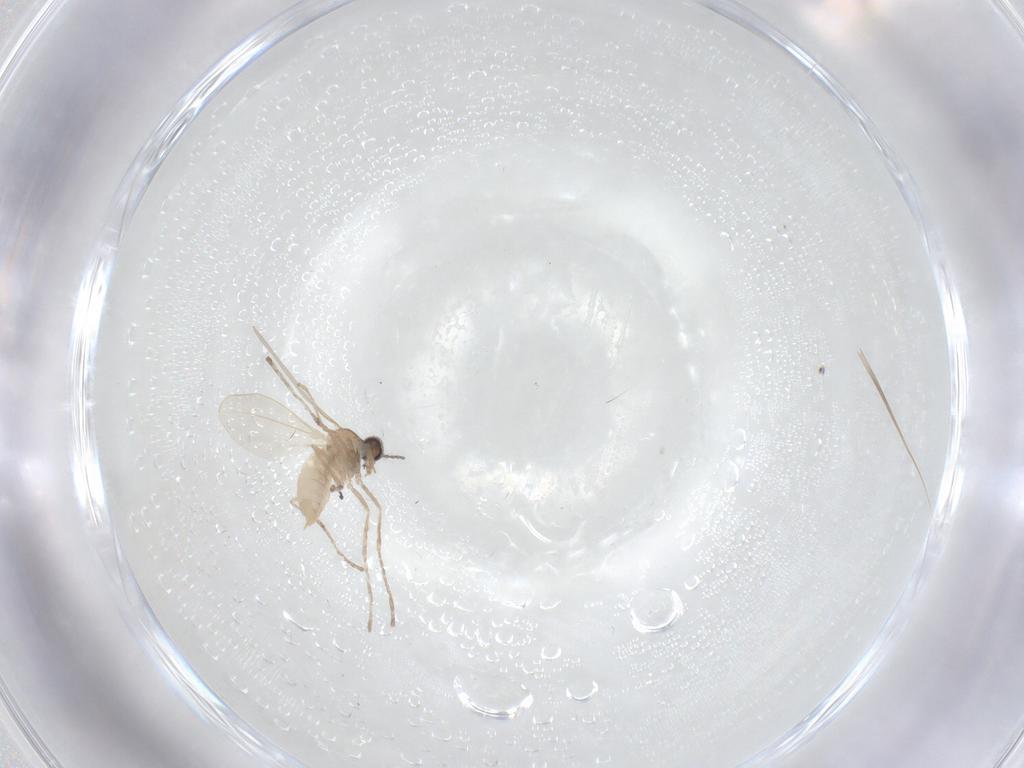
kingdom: Animalia
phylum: Arthropoda
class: Insecta
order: Diptera
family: Cecidomyiidae
